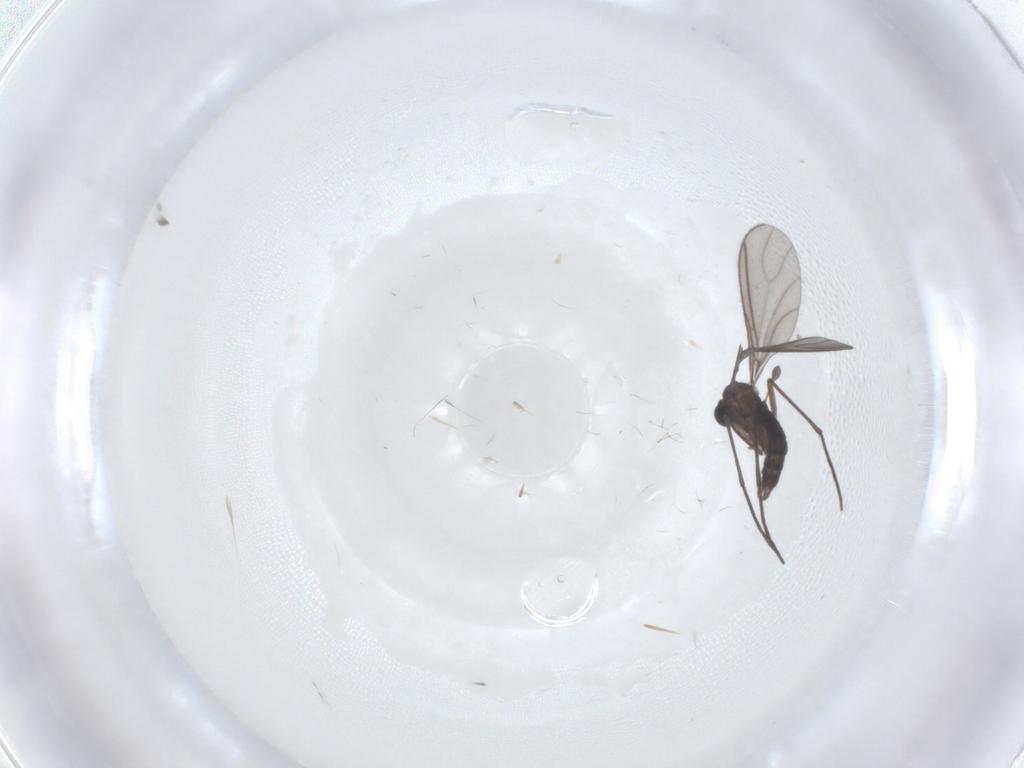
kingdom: Animalia
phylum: Arthropoda
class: Insecta
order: Diptera
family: Sciaridae
